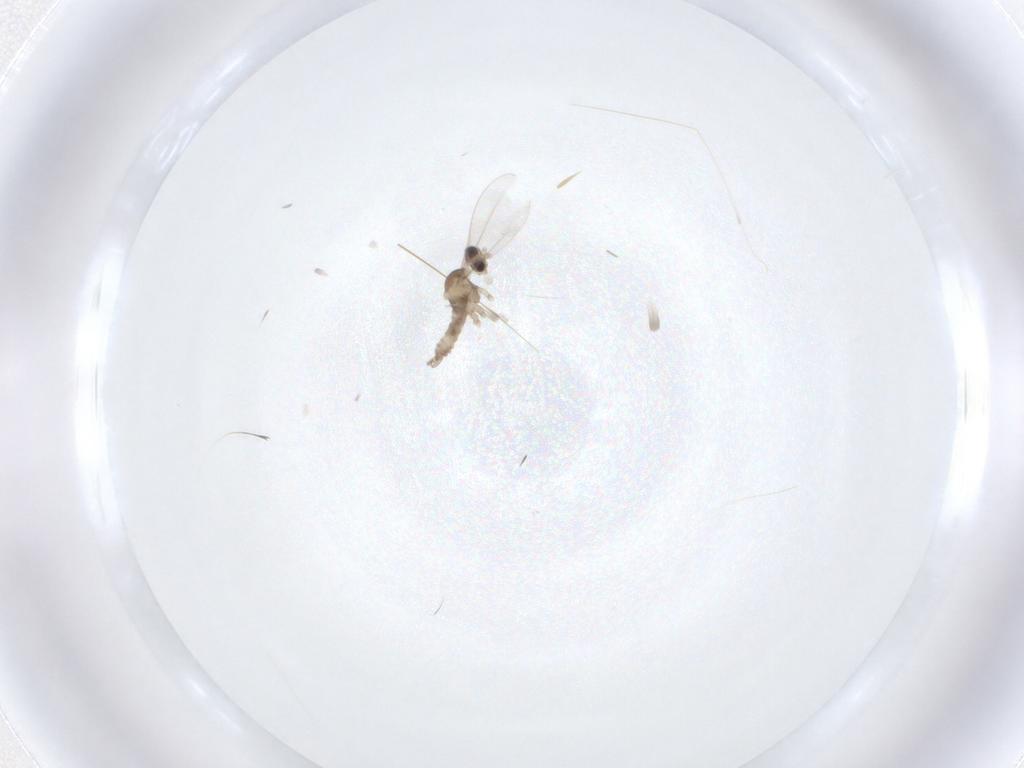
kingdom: Animalia
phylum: Arthropoda
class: Insecta
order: Diptera
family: Cecidomyiidae
